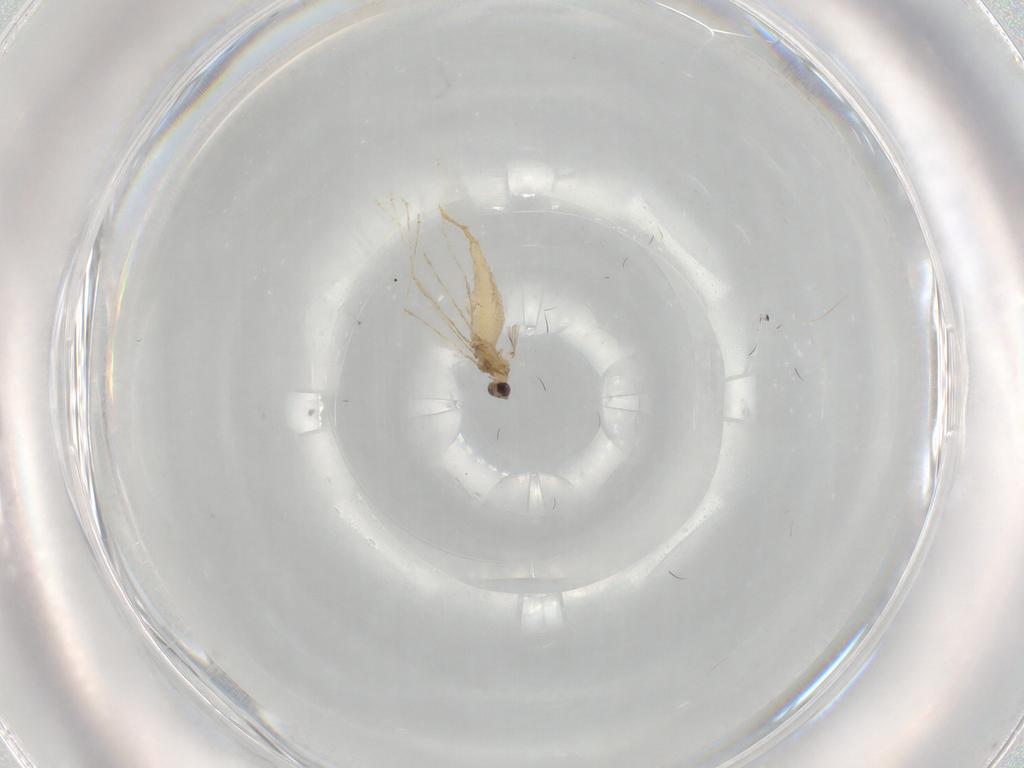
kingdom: Animalia
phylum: Arthropoda
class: Insecta
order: Diptera
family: Cecidomyiidae
